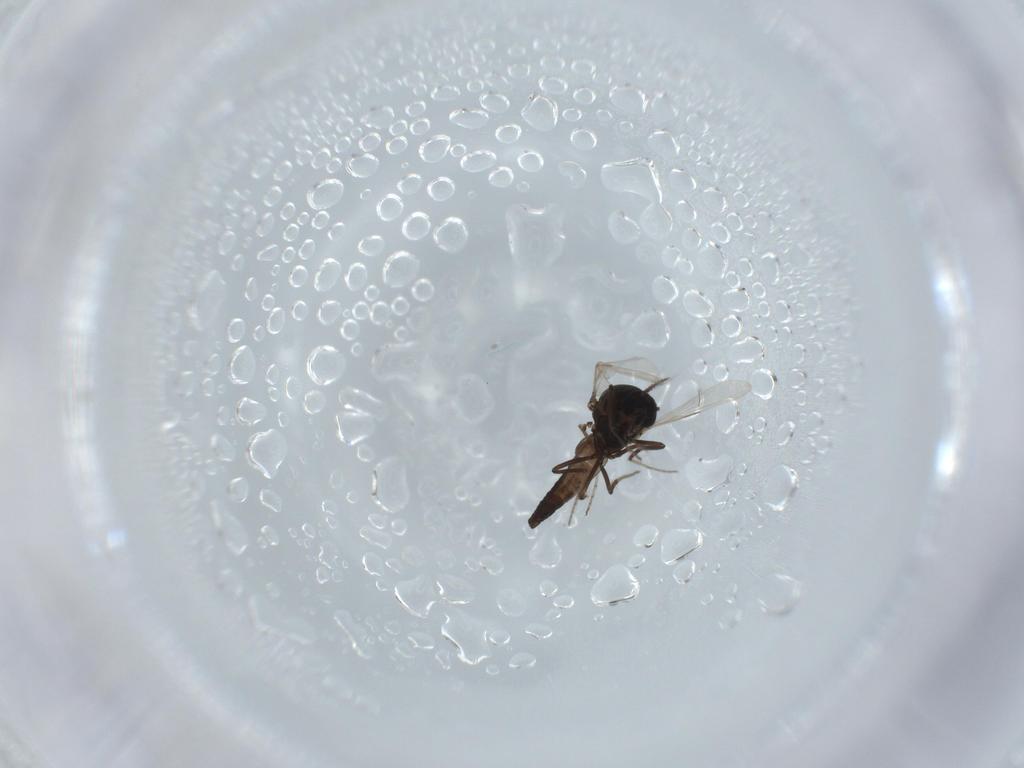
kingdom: Animalia
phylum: Arthropoda
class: Insecta
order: Diptera
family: Chironomidae
